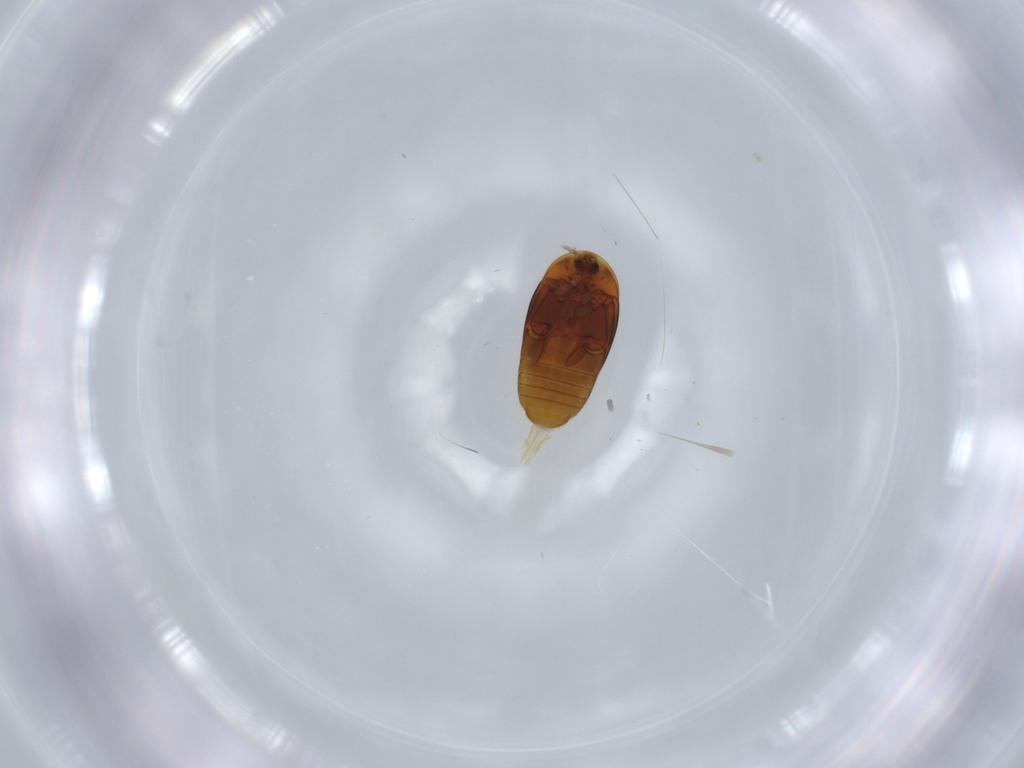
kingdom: Animalia
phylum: Arthropoda
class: Insecta
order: Coleoptera
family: Corylophidae
